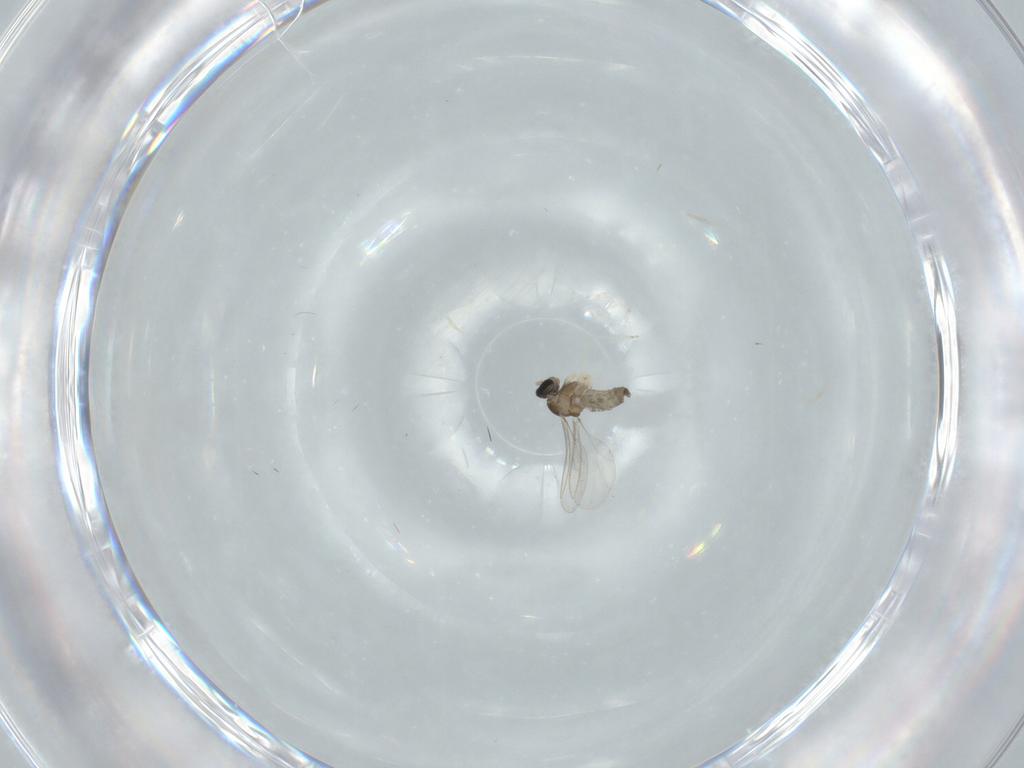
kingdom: Animalia
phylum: Arthropoda
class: Insecta
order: Diptera
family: Cecidomyiidae
